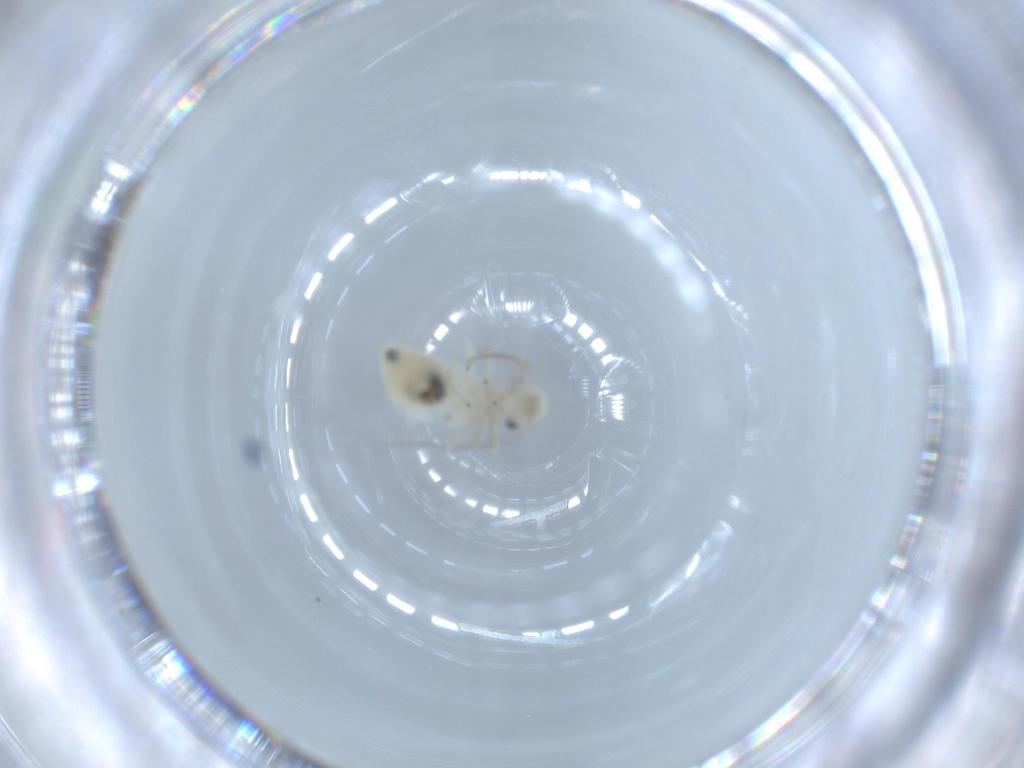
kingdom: Animalia
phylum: Arthropoda
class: Insecta
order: Psocodea
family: Caeciliusidae
